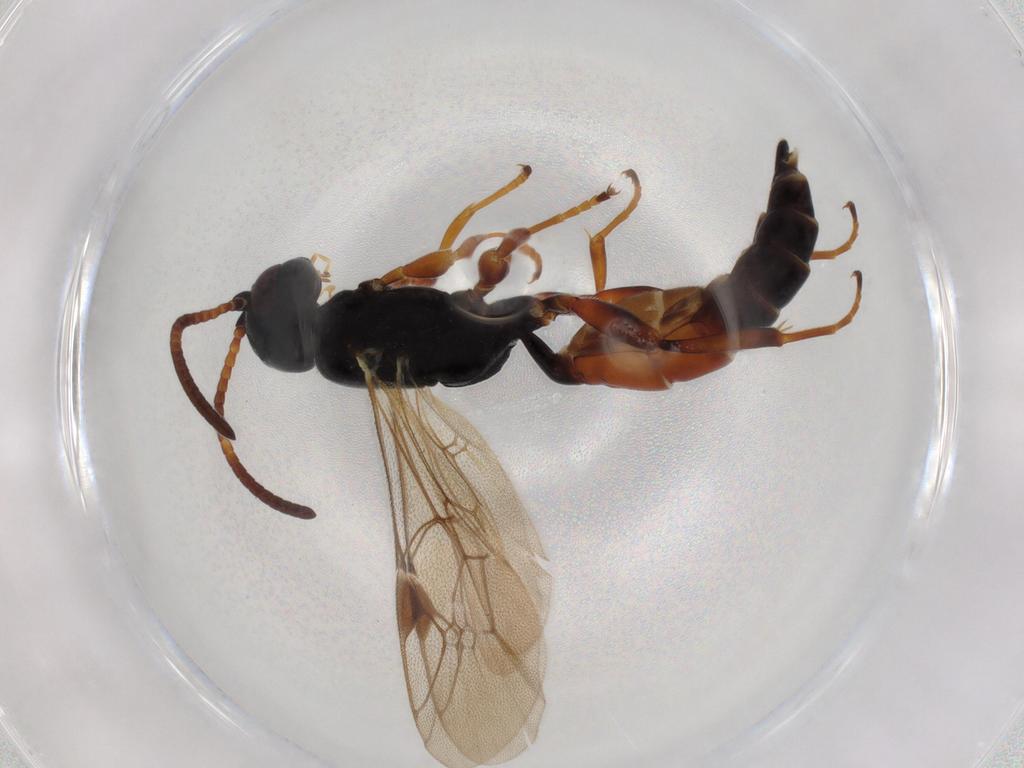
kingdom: Animalia
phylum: Arthropoda
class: Insecta
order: Hymenoptera
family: Ichneumonidae
